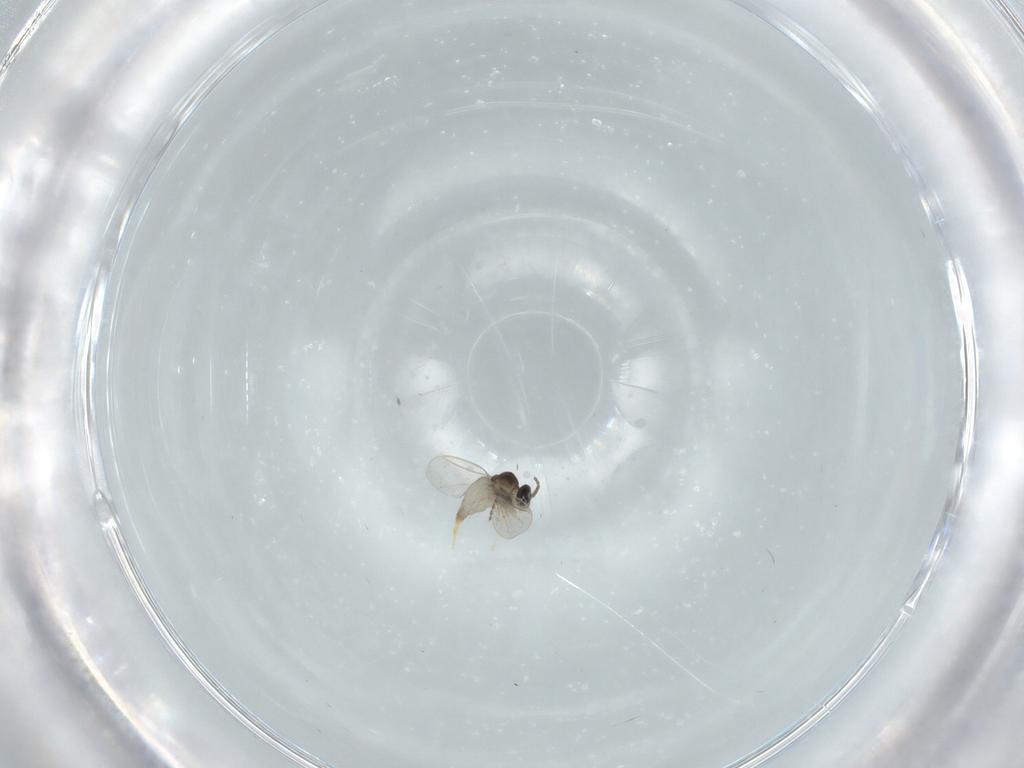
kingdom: Animalia
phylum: Arthropoda
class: Insecta
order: Diptera
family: Cecidomyiidae
